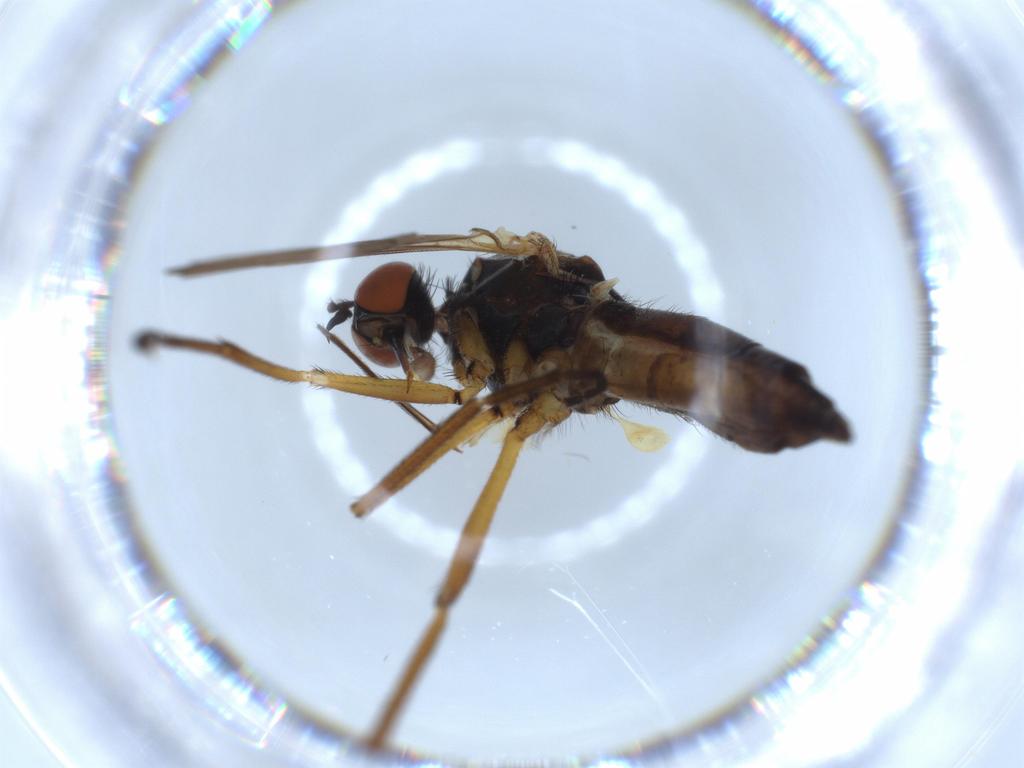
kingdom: Animalia
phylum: Arthropoda
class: Insecta
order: Diptera
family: Empididae
